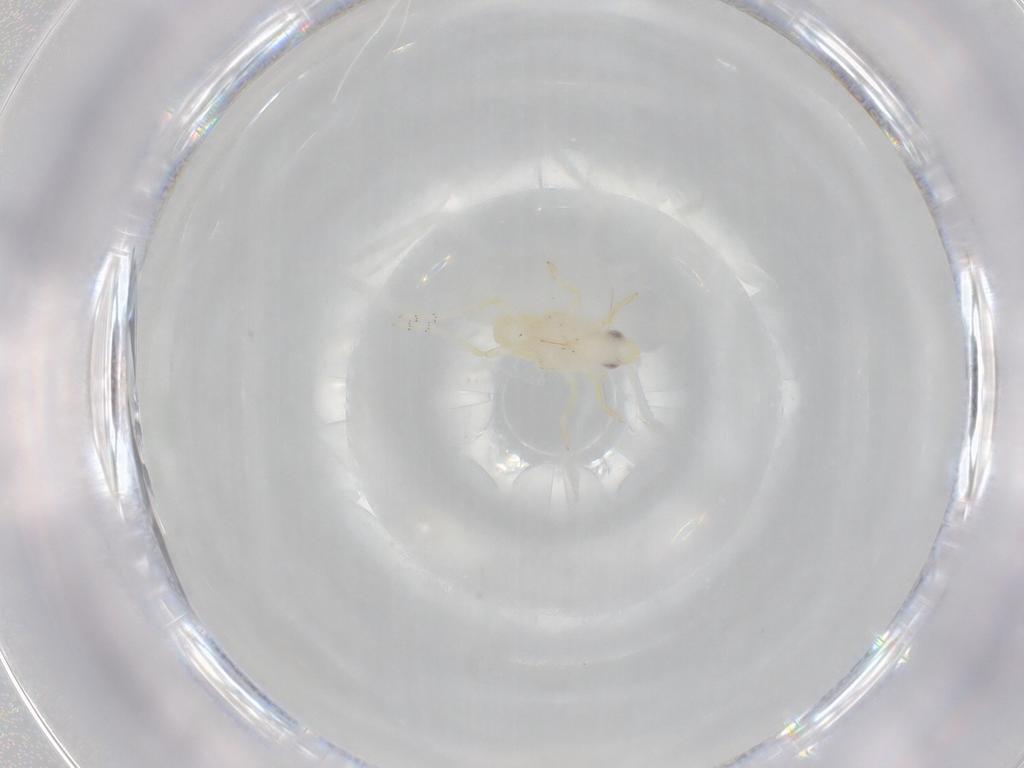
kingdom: Animalia
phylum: Arthropoda
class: Insecta
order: Hemiptera
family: Tropiduchidae
